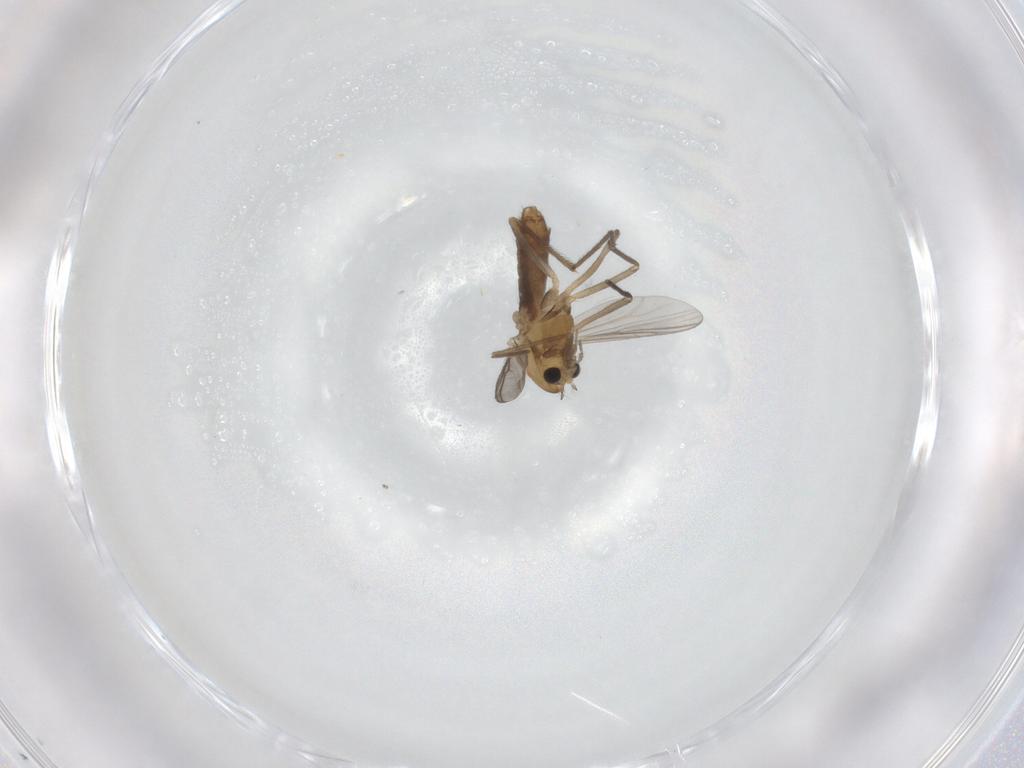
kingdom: Animalia
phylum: Arthropoda
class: Insecta
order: Diptera
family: Chironomidae
